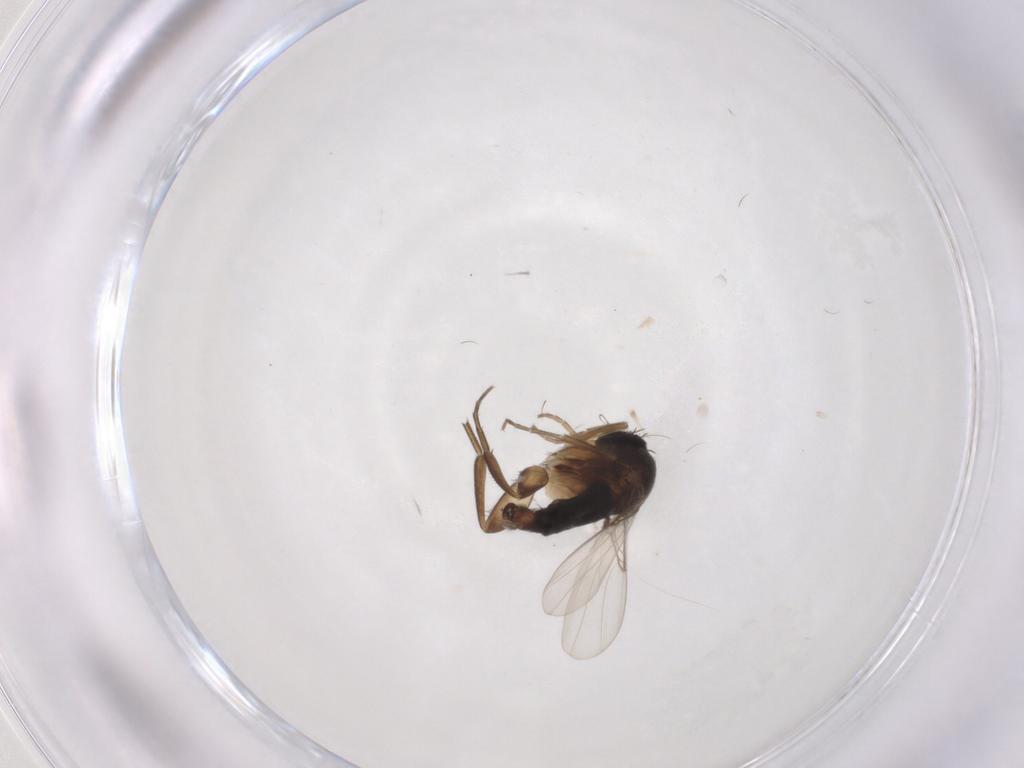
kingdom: Animalia
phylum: Arthropoda
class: Insecta
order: Diptera
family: Phoridae
